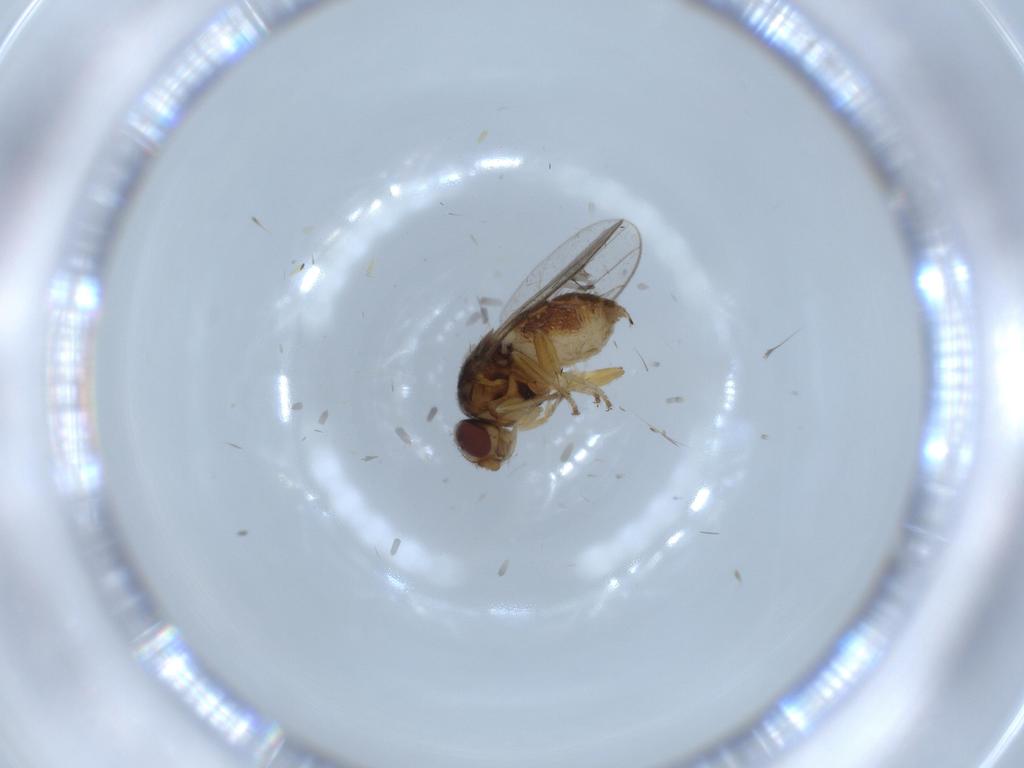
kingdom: Animalia
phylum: Arthropoda
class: Insecta
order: Diptera
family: Chloropidae
